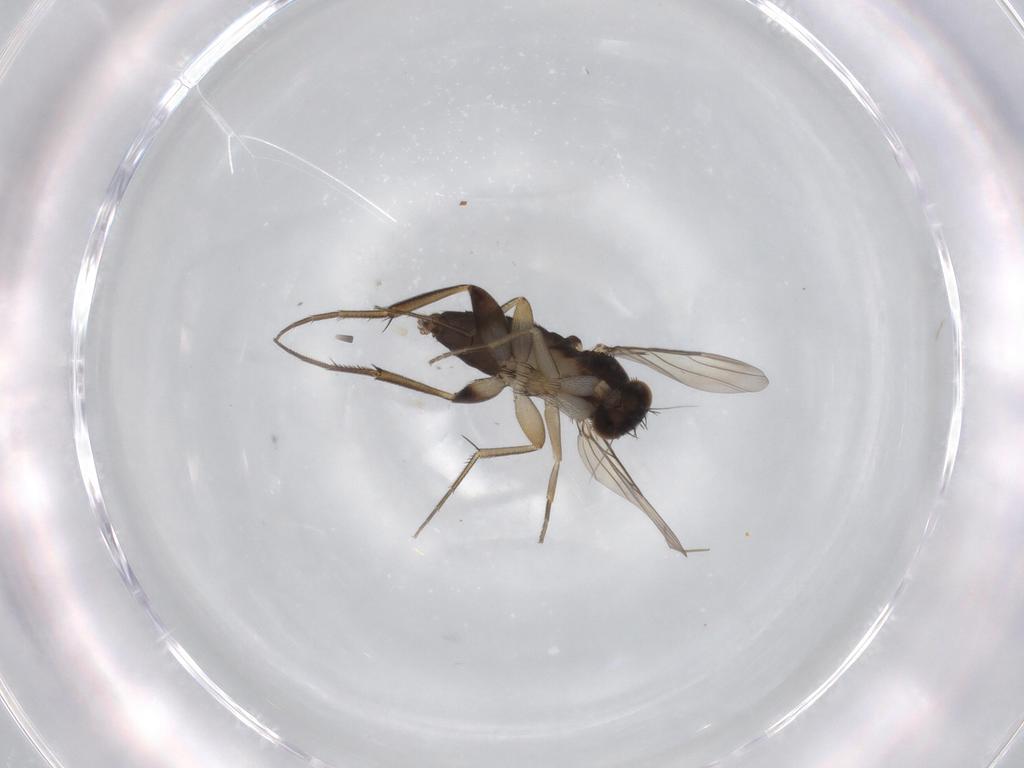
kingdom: Animalia
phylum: Arthropoda
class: Insecta
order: Diptera
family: Phoridae
